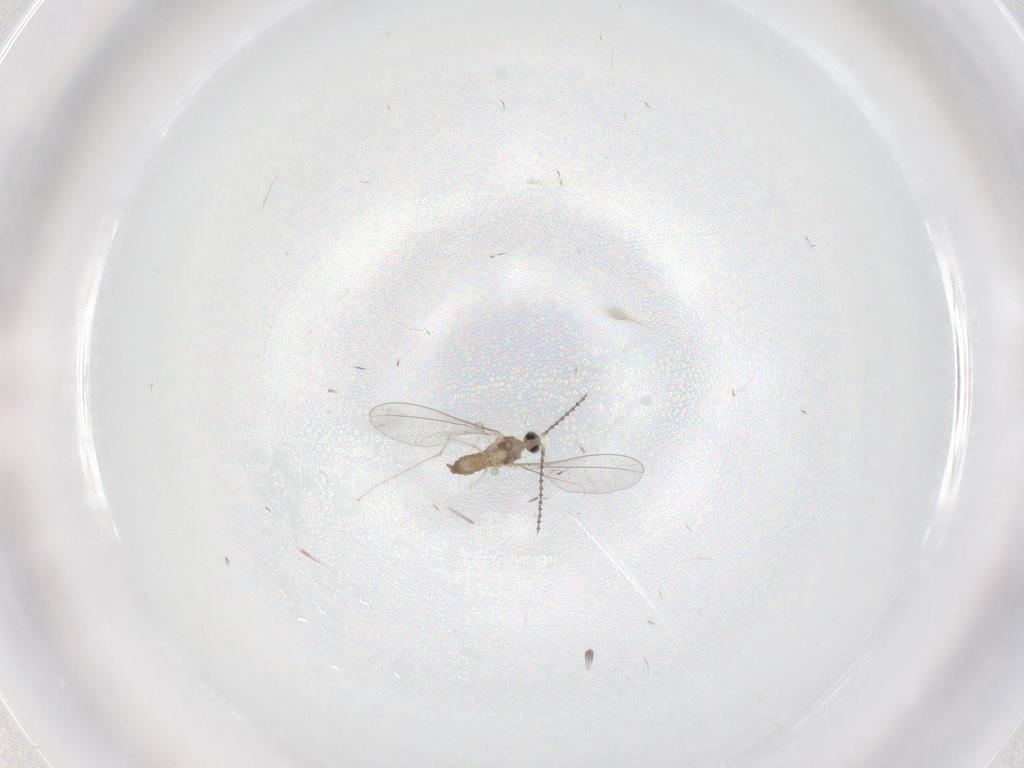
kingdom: Animalia
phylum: Arthropoda
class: Insecta
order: Diptera
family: Cecidomyiidae
